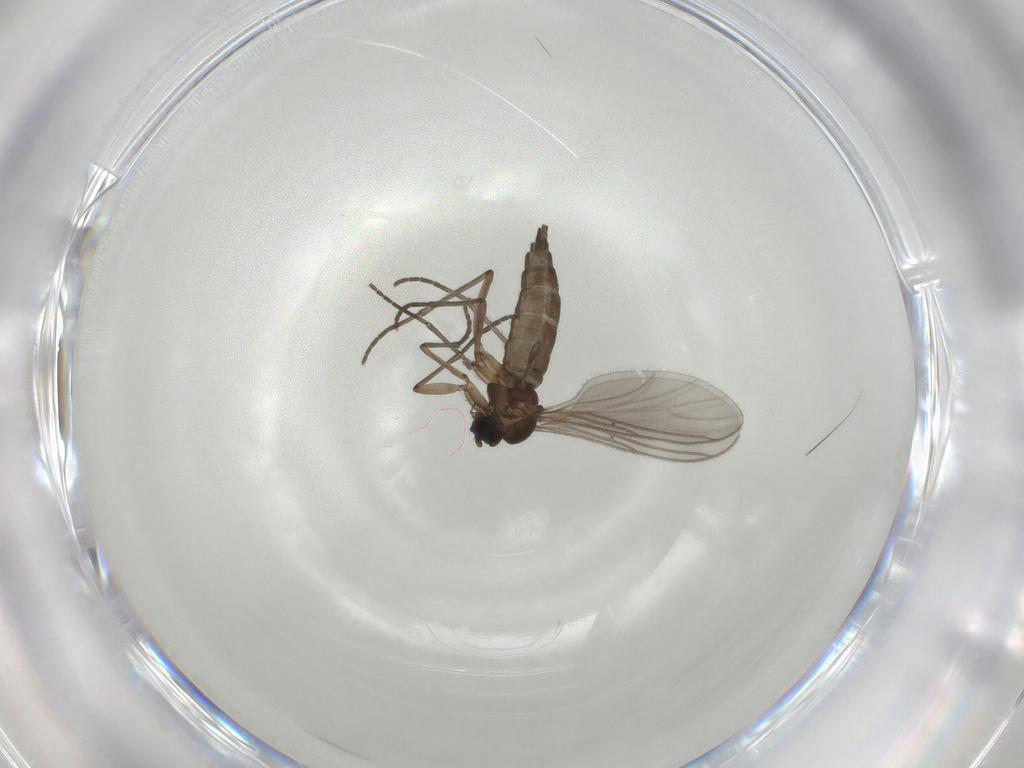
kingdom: Animalia
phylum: Arthropoda
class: Insecta
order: Diptera
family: Sciaridae
